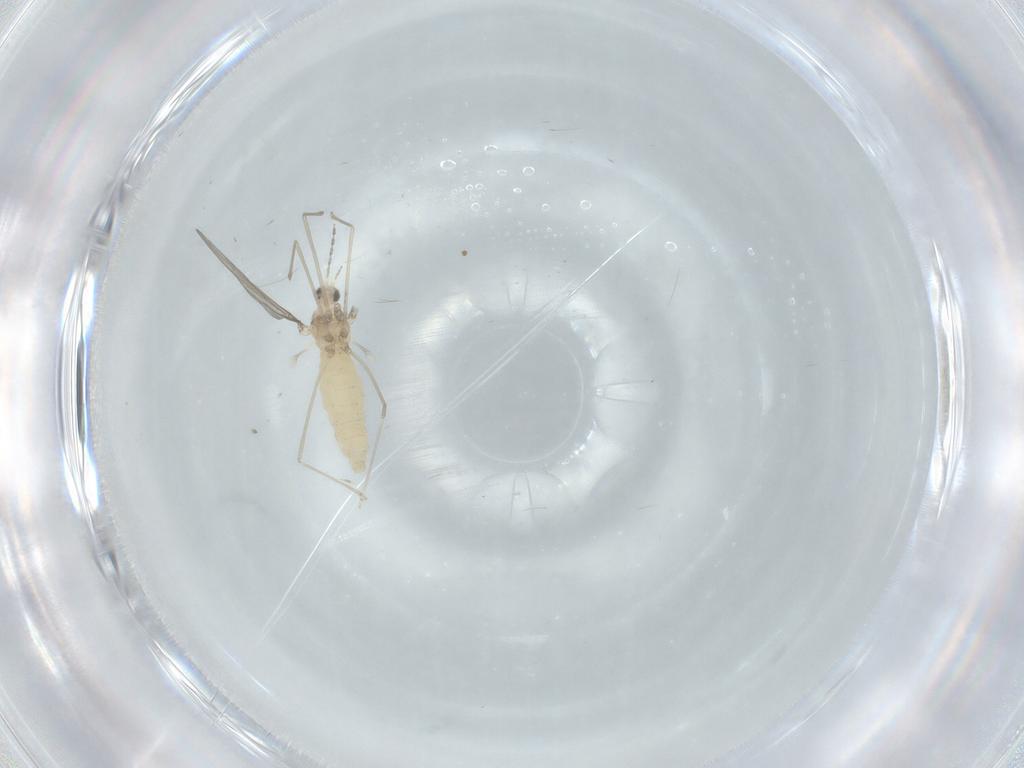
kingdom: Animalia
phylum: Arthropoda
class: Insecta
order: Diptera
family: Cecidomyiidae
